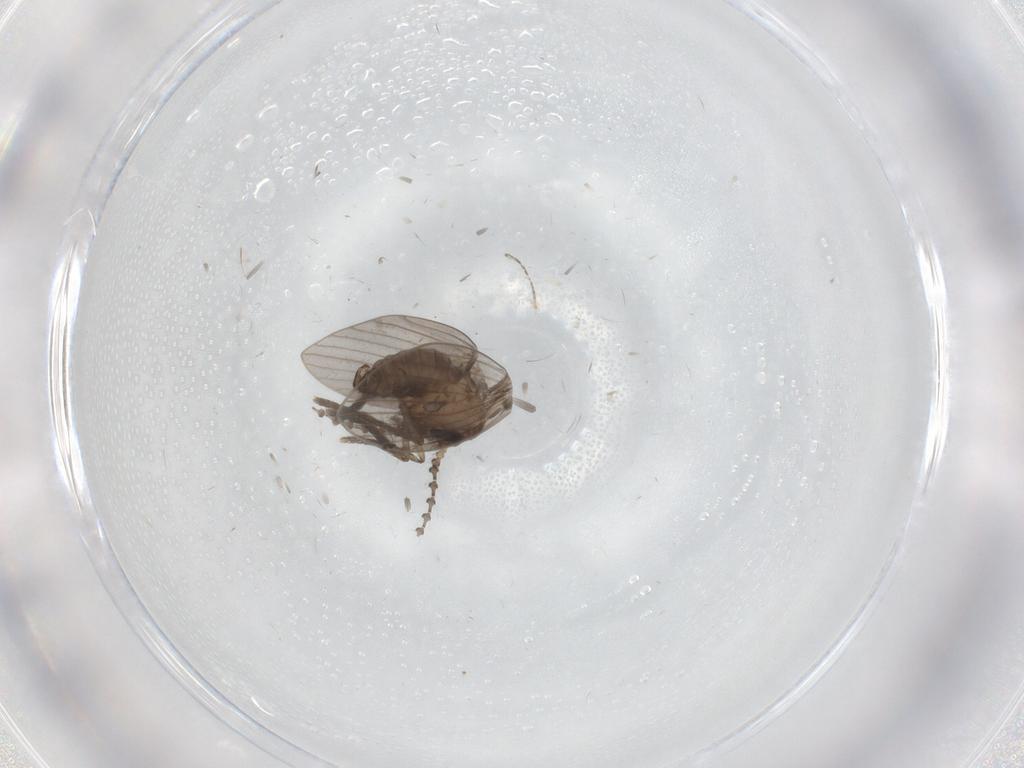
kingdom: Animalia
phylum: Arthropoda
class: Insecta
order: Diptera
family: Psychodidae
